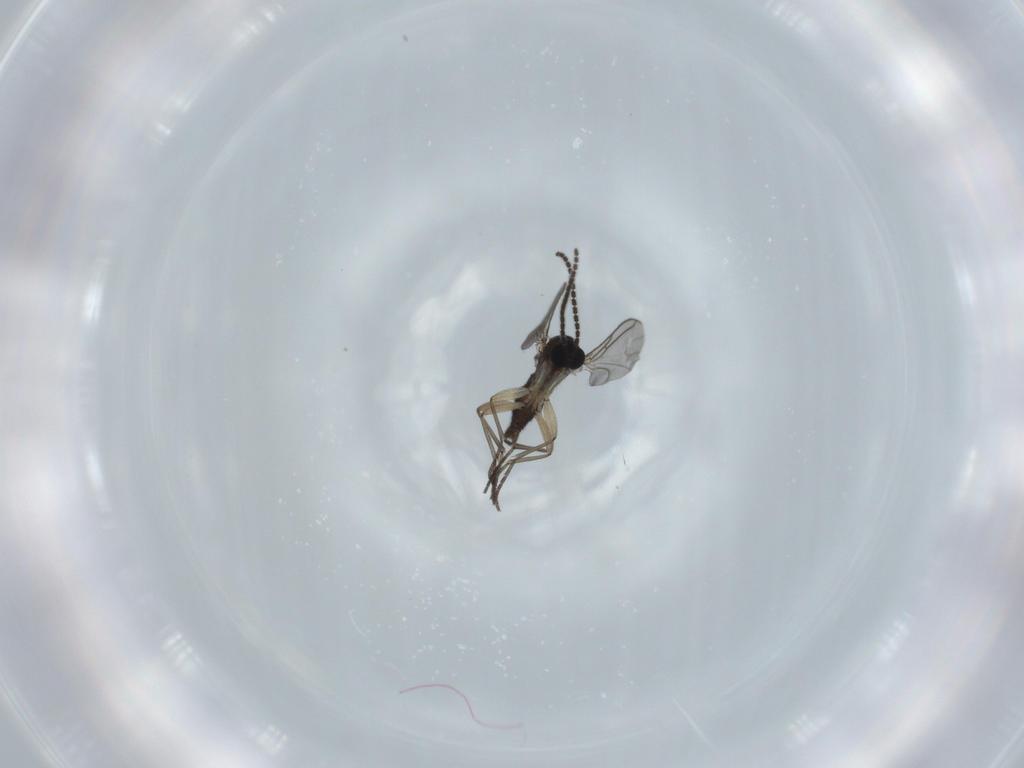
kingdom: Animalia
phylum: Arthropoda
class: Insecta
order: Diptera
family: Sciaridae
